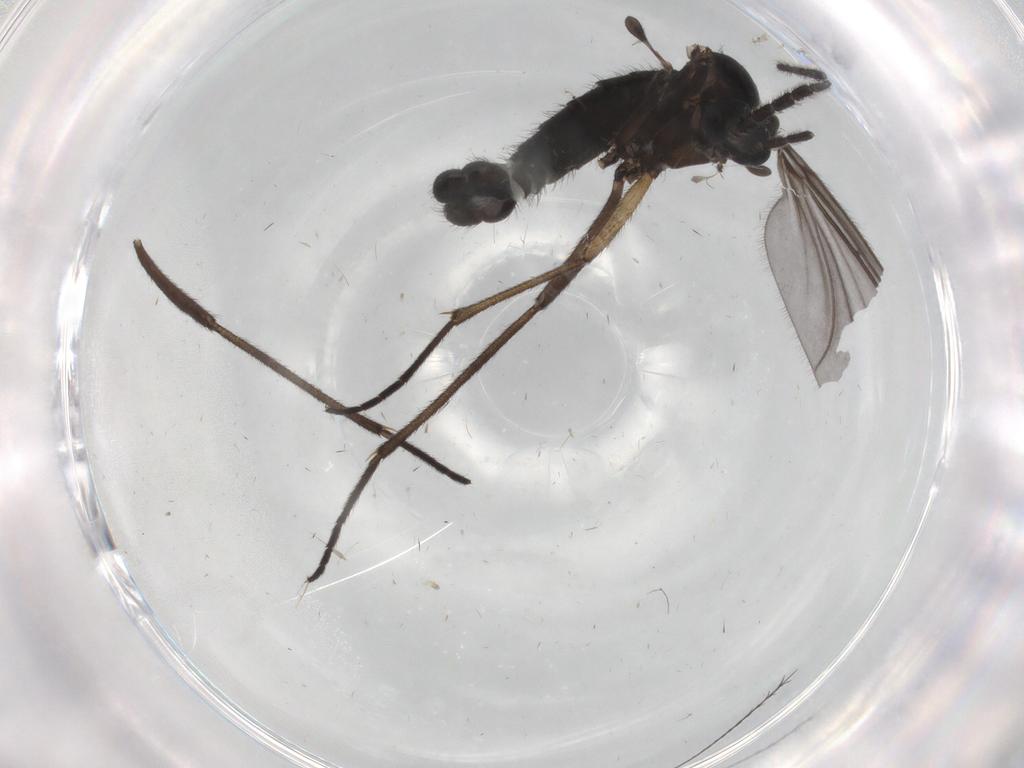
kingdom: Animalia
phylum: Arthropoda
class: Insecta
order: Diptera
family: Sciaridae
